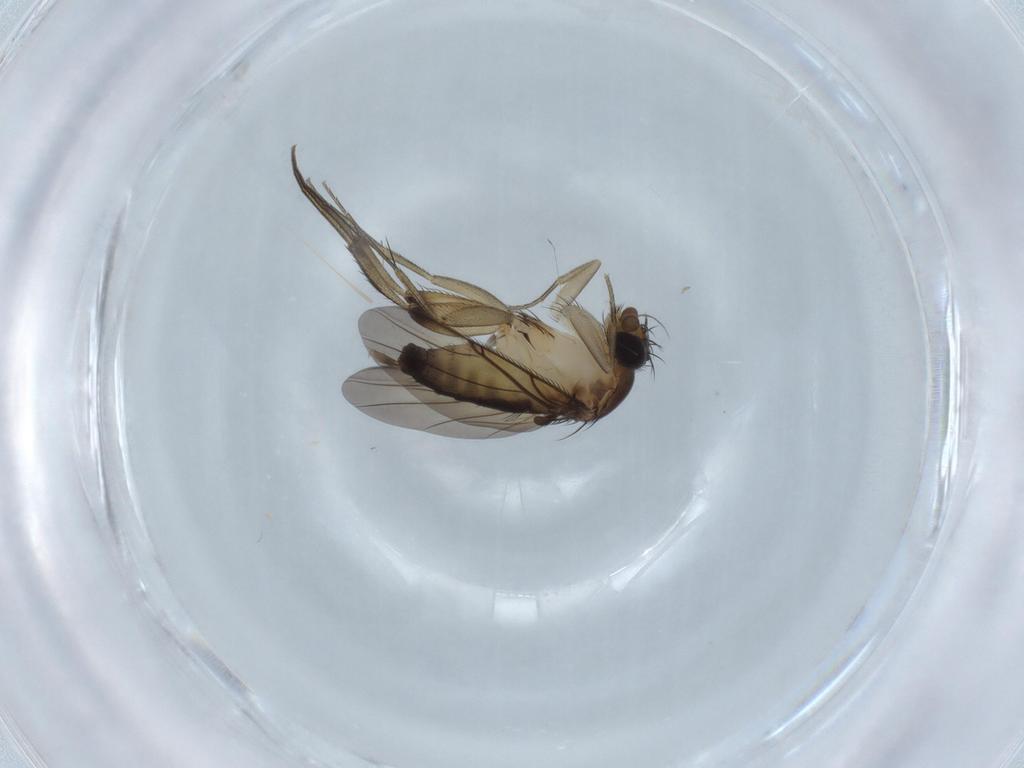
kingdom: Animalia
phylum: Arthropoda
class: Insecta
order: Diptera
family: Phoridae
